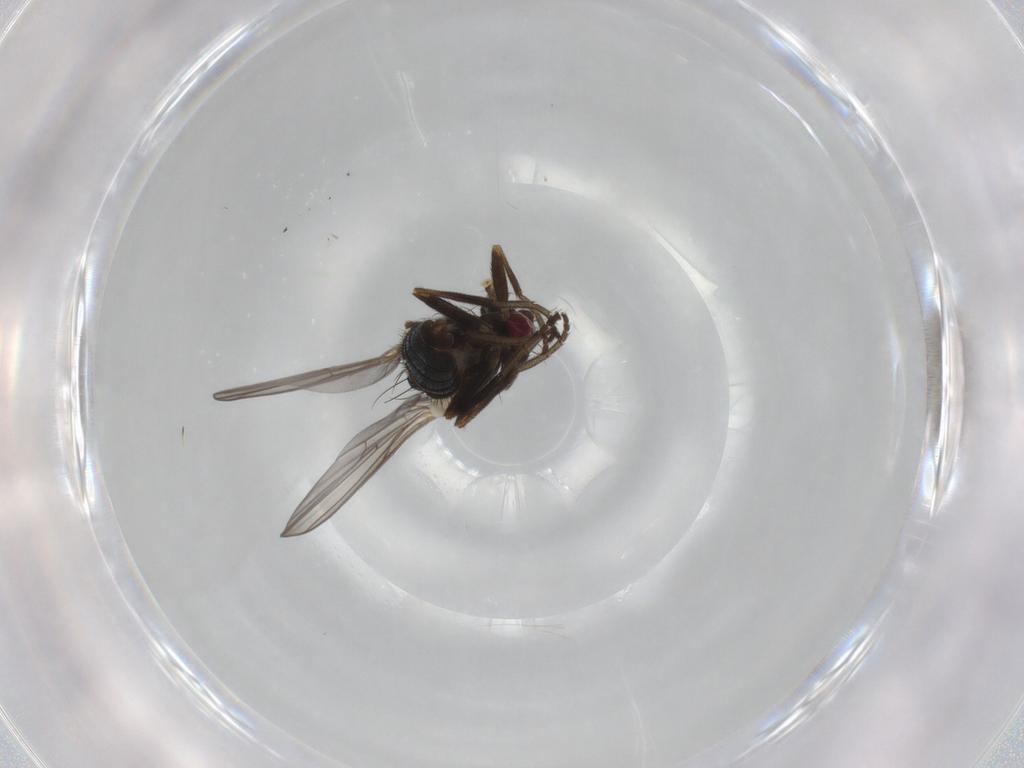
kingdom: Animalia
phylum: Arthropoda
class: Insecta
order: Diptera
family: Agromyzidae
